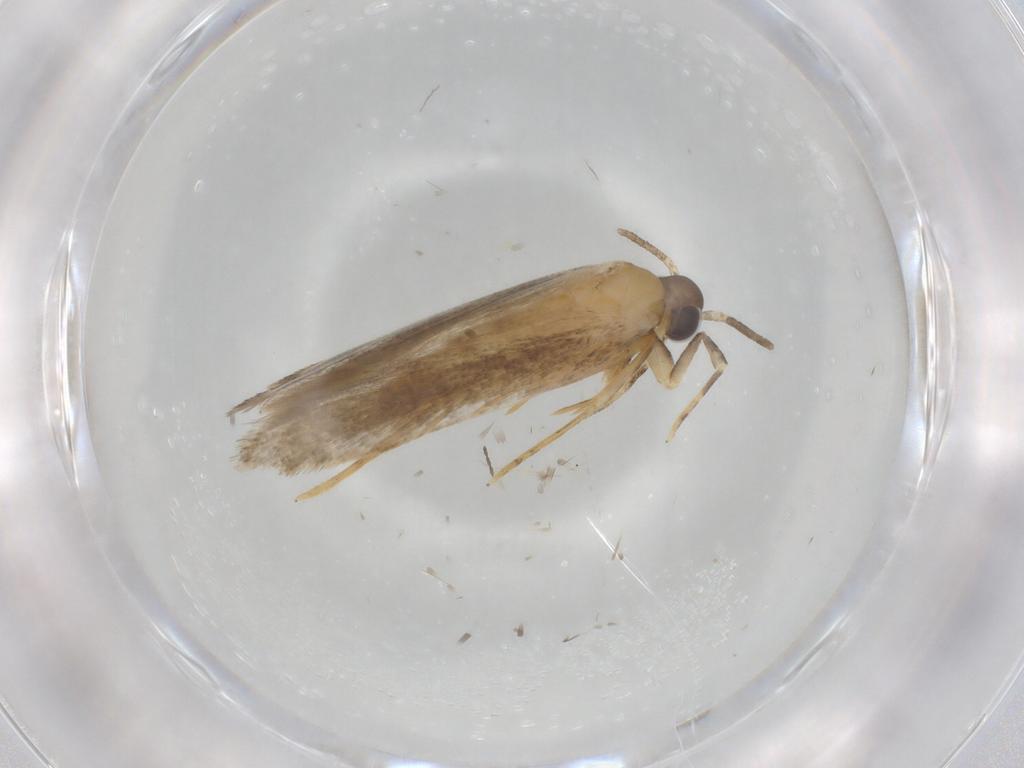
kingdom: Animalia
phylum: Arthropoda
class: Insecta
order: Lepidoptera
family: Autostichidae
